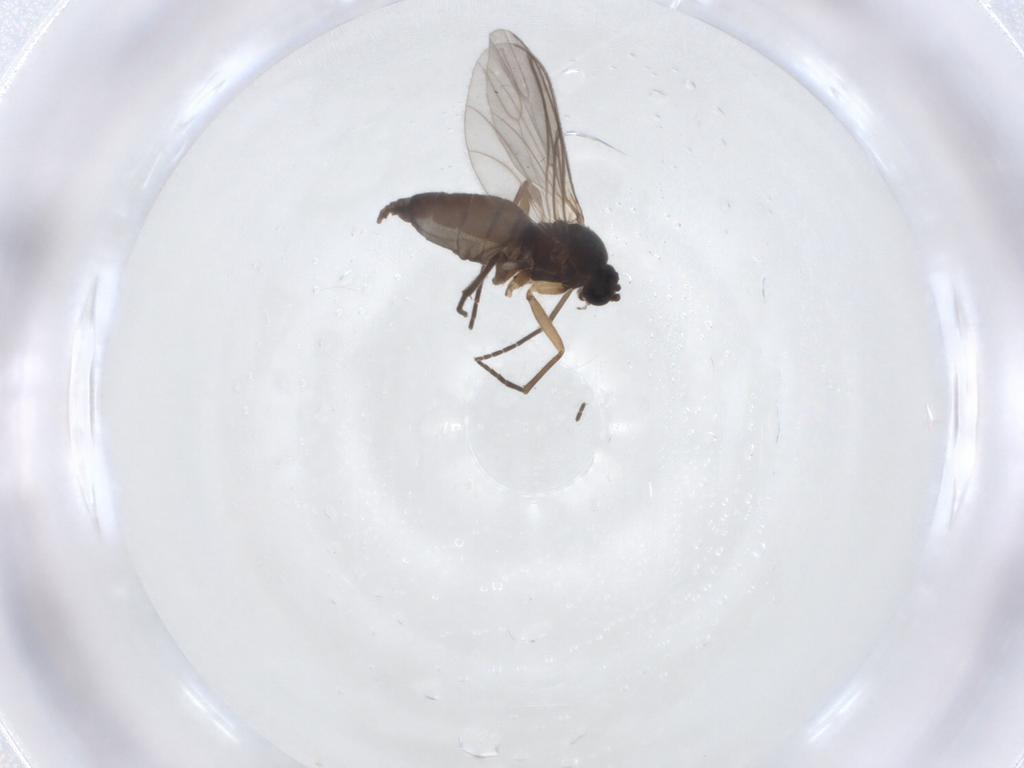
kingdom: Animalia
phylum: Arthropoda
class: Insecta
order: Diptera
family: Sciaridae
